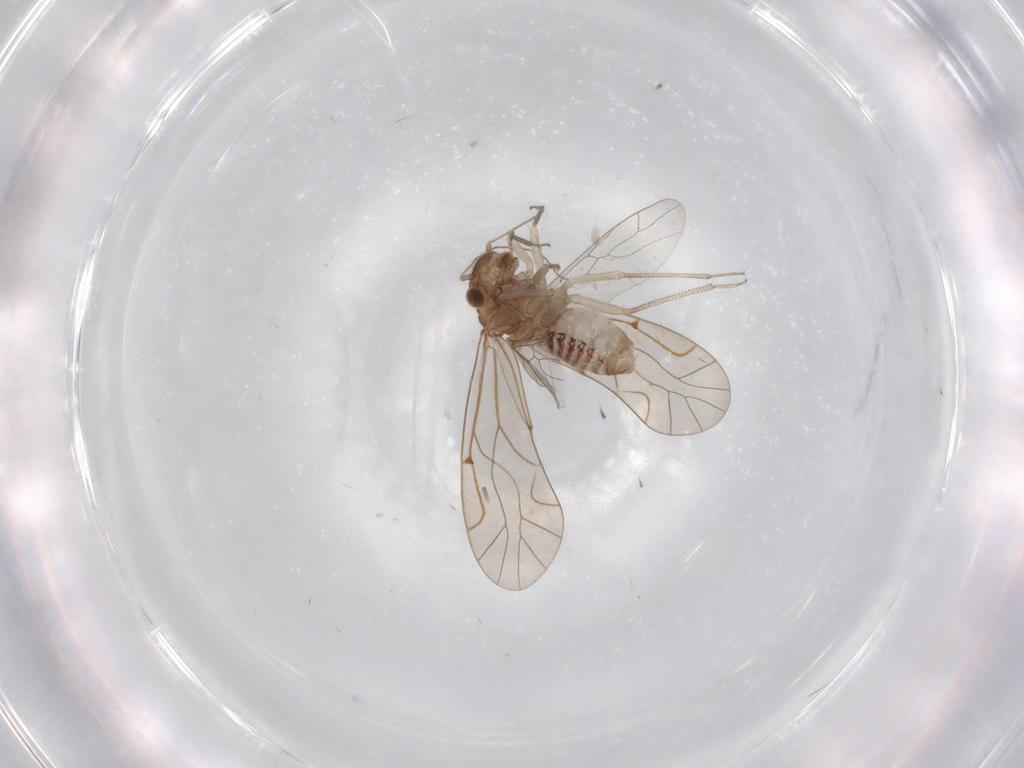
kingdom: Animalia
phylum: Arthropoda
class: Insecta
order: Psocodea
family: Lachesillidae
